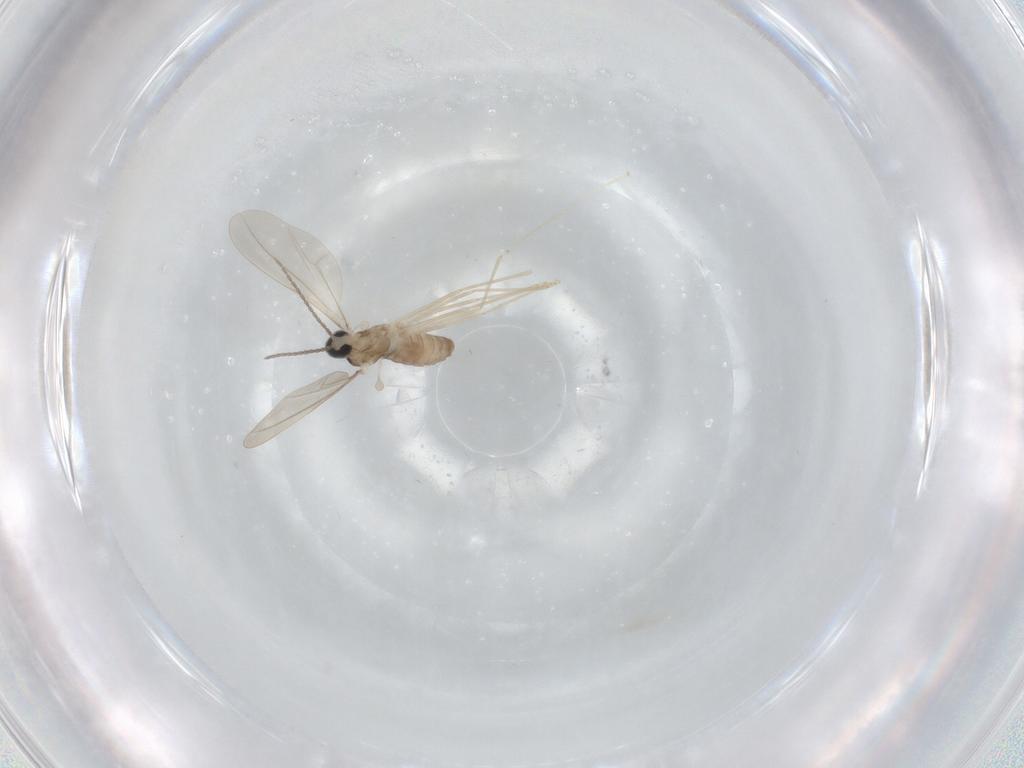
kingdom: Animalia
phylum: Arthropoda
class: Insecta
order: Diptera
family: Cecidomyiidae
